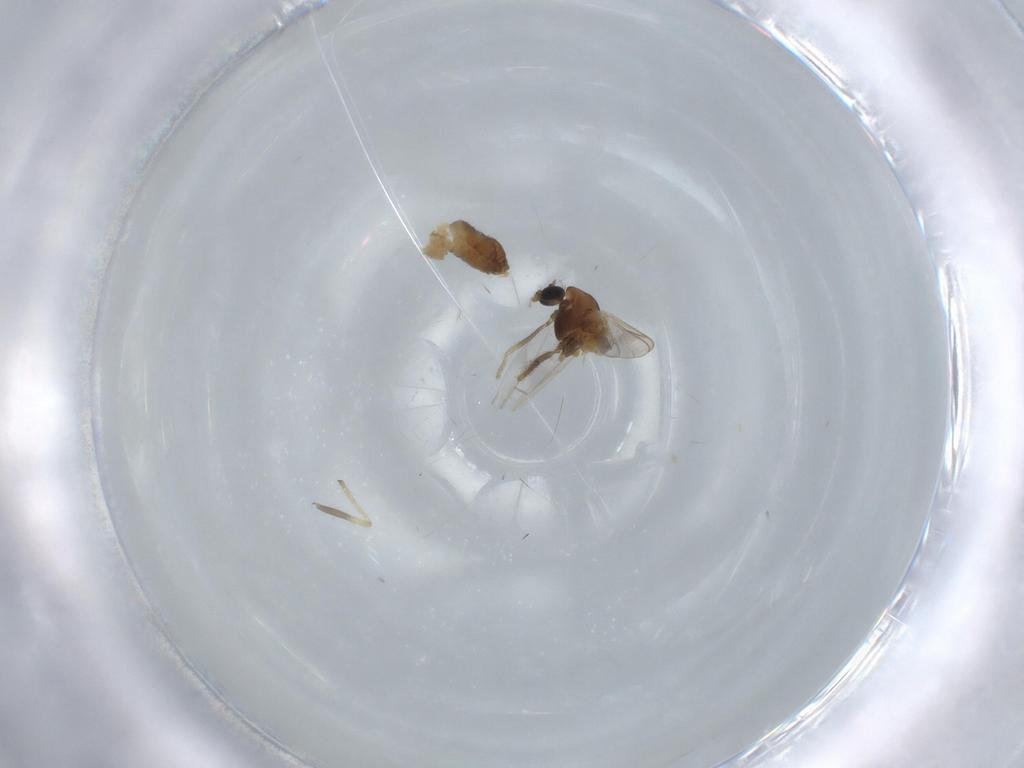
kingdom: Animalia
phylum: Arthropoda
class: Insecta
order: Diptera
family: Chironomidae
